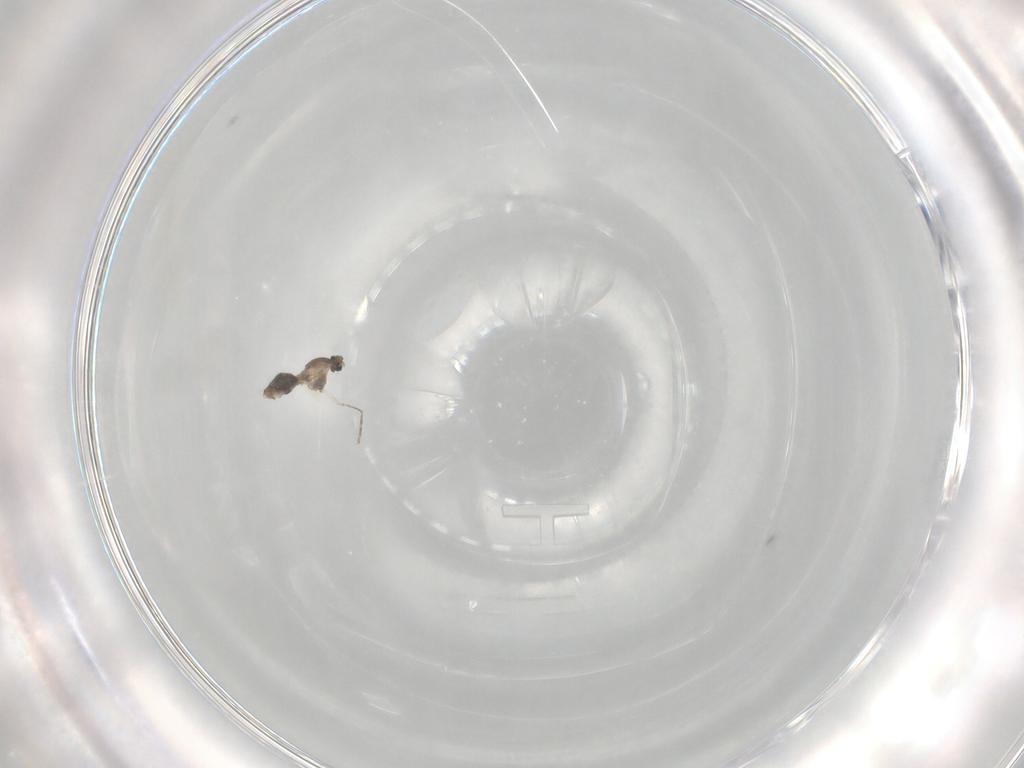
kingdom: Animalia
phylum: Arthropoda
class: Insecta
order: Diptera
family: Cecidomyiidae
